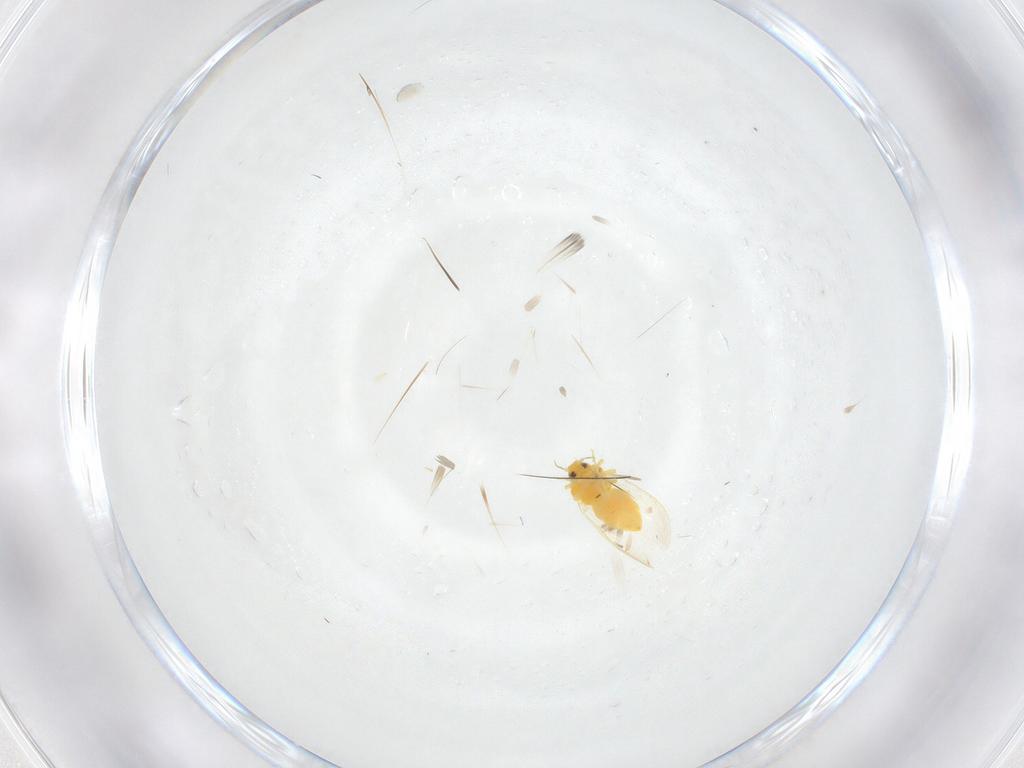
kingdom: Animalia
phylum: Arthropoda
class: Insecta
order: Hemiptera
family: Aleyrodidae
